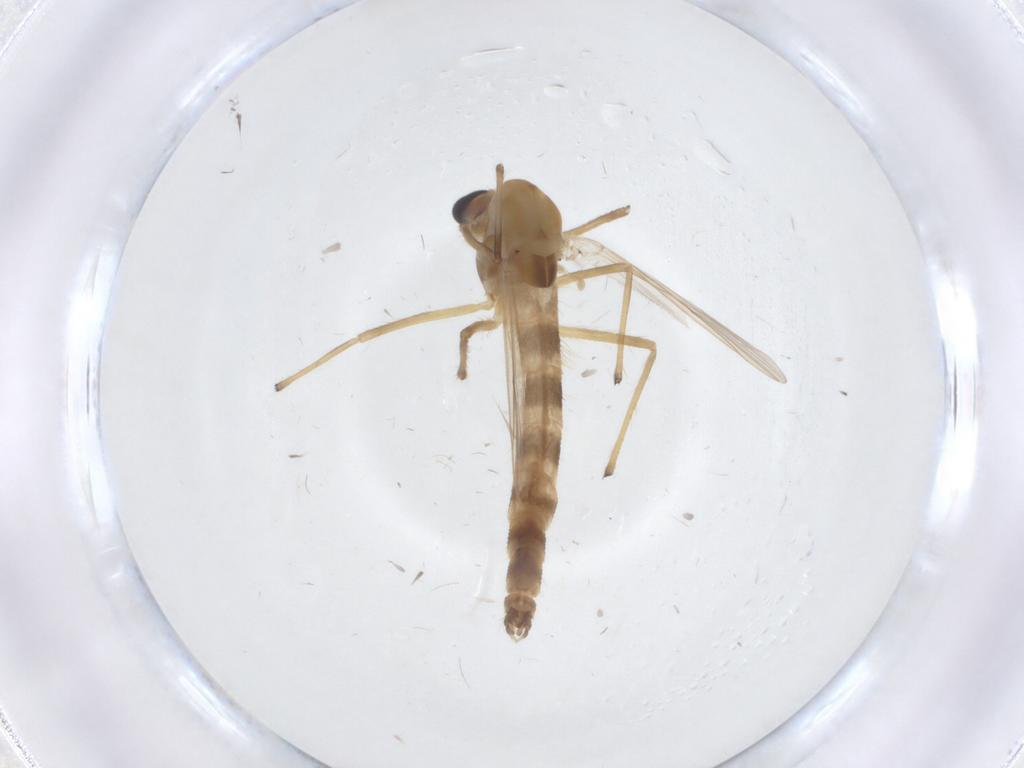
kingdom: Animalia
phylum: Arthropoda
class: Insecta
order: Diptera
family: Chironomidae
